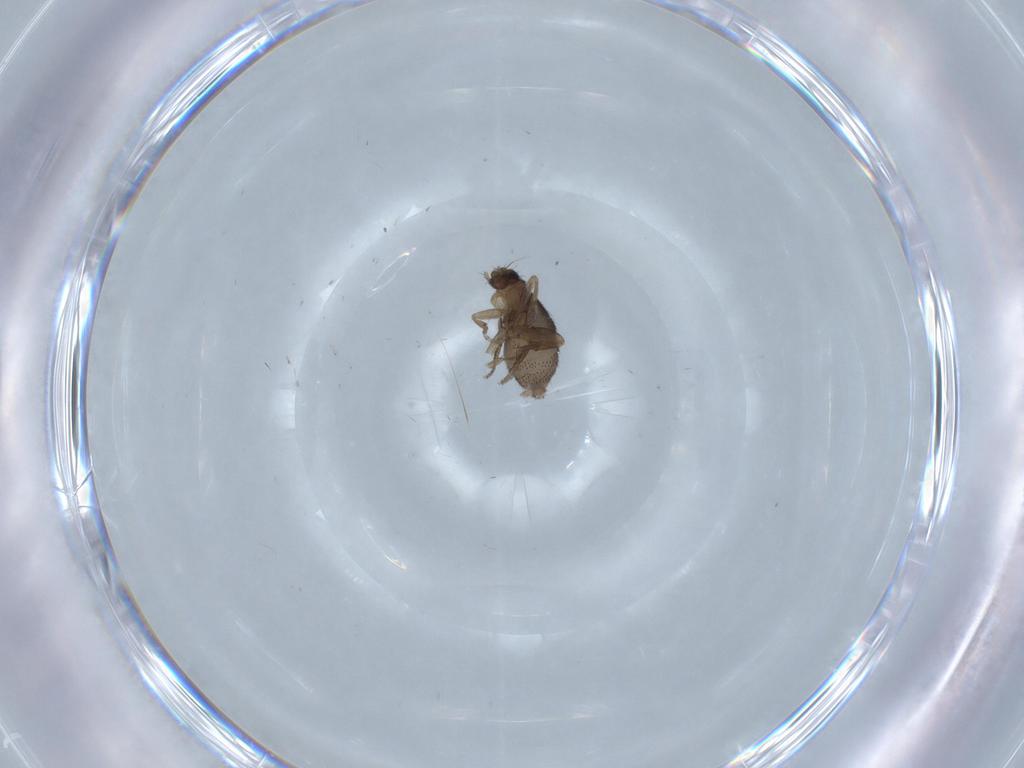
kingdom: Animalia
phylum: Arthropoda
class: Insecta
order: Diptera
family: Phoridae
